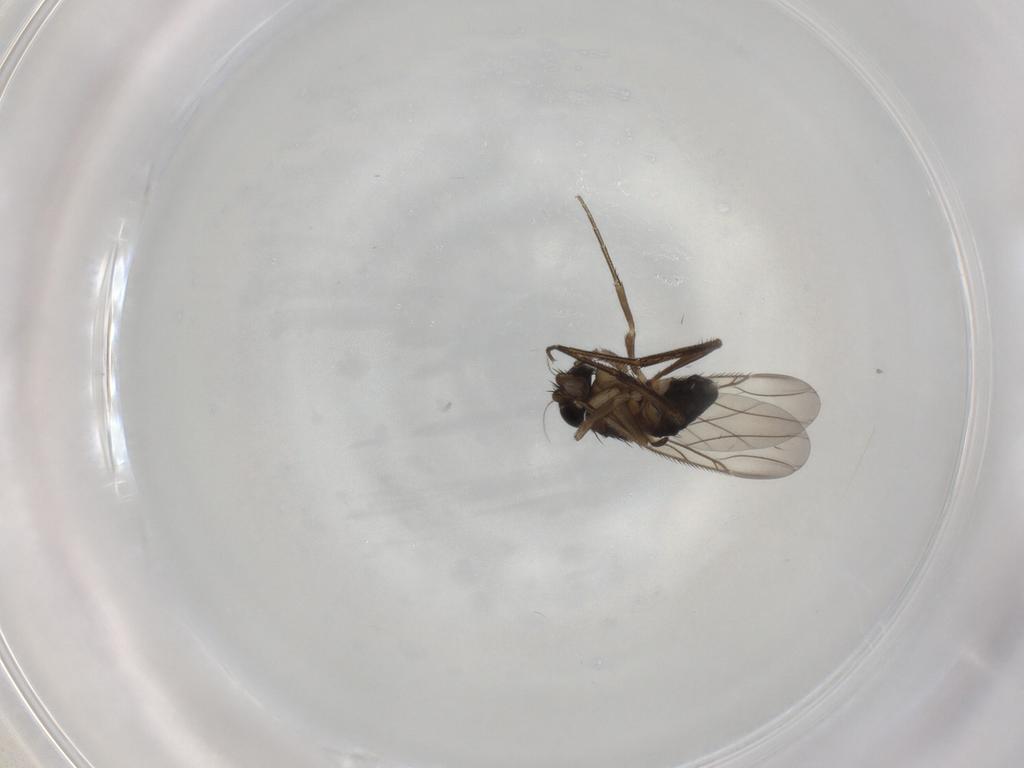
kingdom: Animalia
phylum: Arthropoda
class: Insecta
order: Diptera
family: Phoridae
